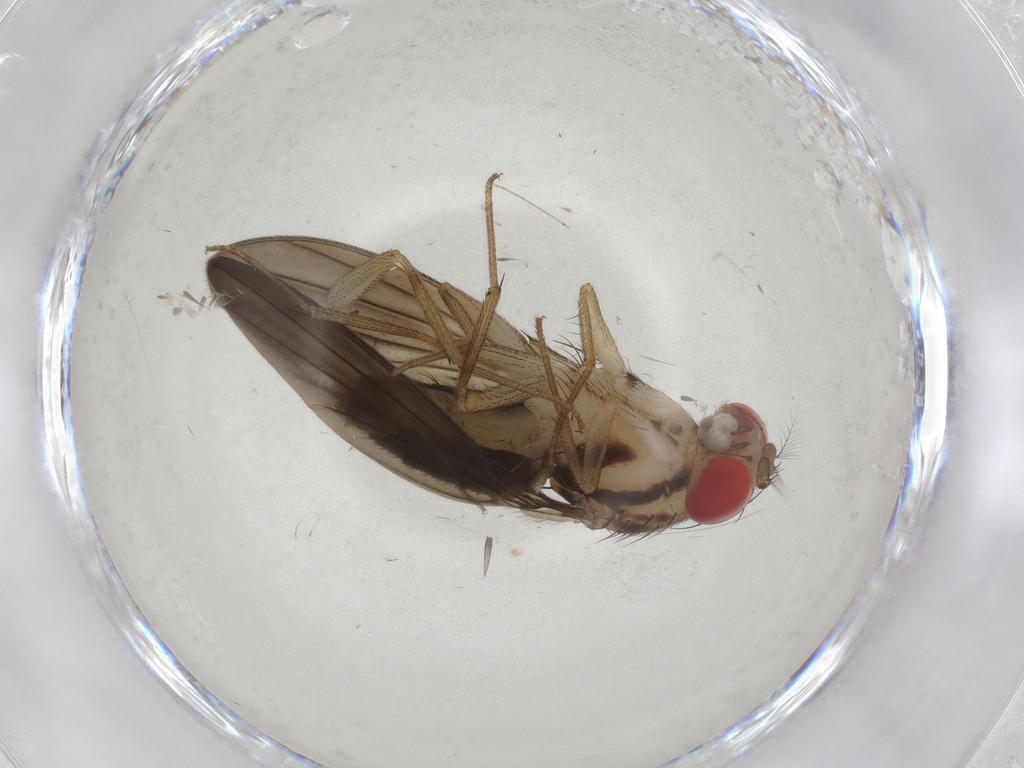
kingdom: Animalia
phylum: Arthropoda
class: Insecta
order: Diptera
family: Drosophilidae
